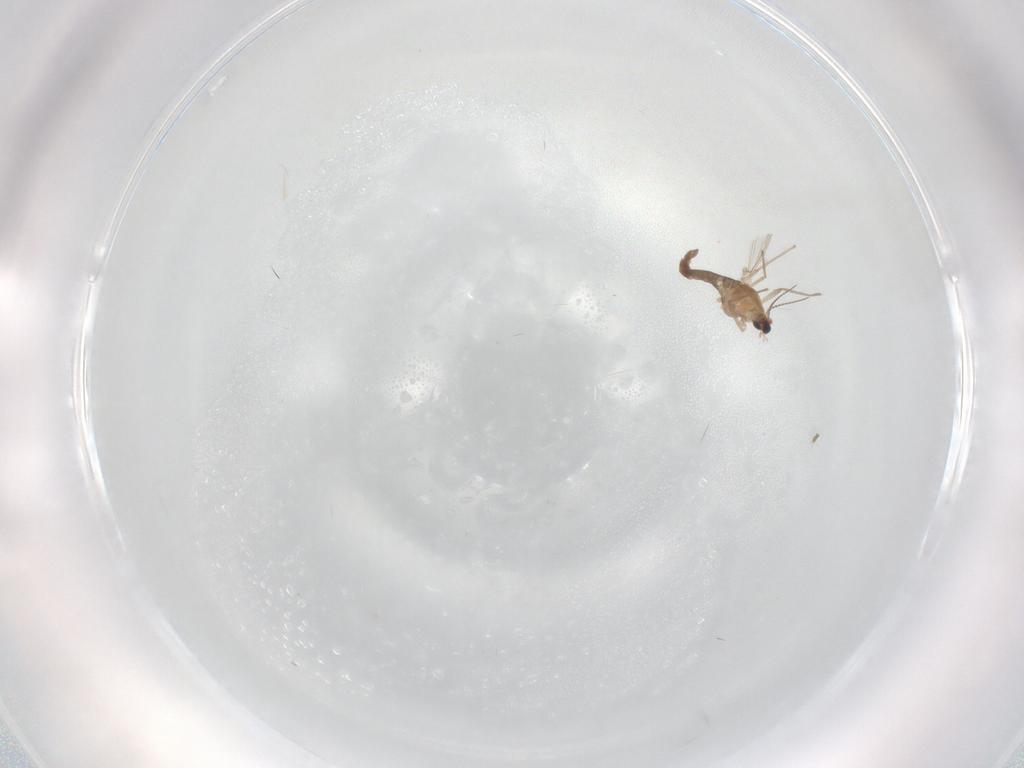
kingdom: Animalia
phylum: Arthropoda
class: Insecta
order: Diptera
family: Chironomidae
